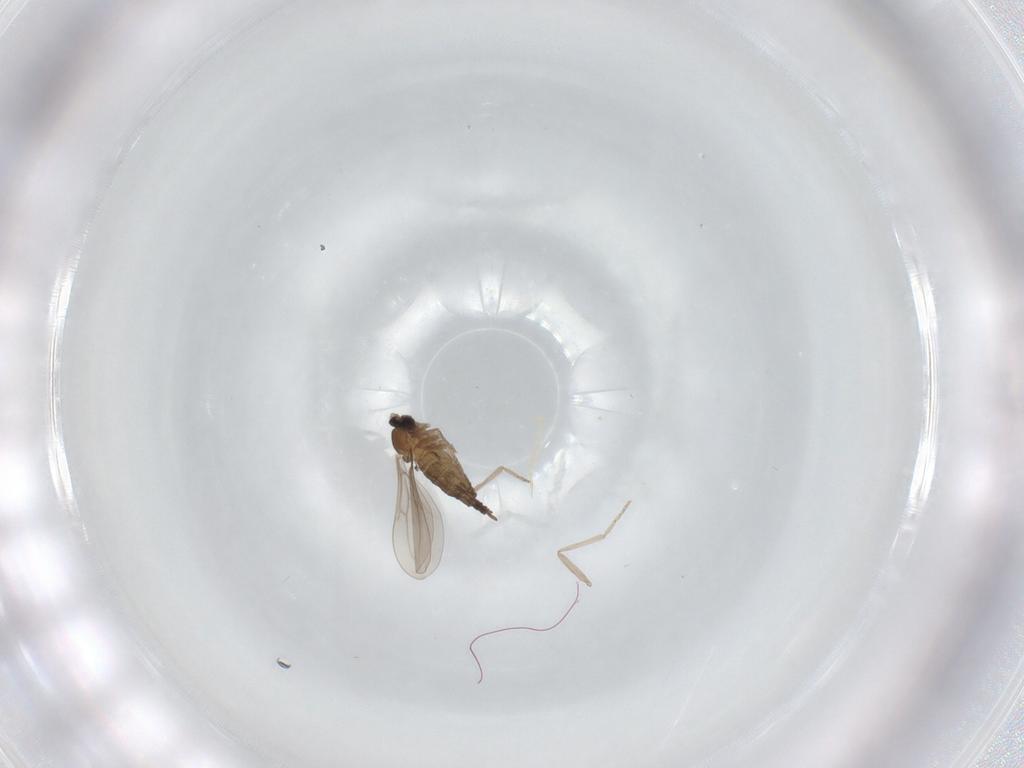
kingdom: Animalia
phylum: Arthropoda
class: Insecta
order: Diptera
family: Cecidomyiidae
